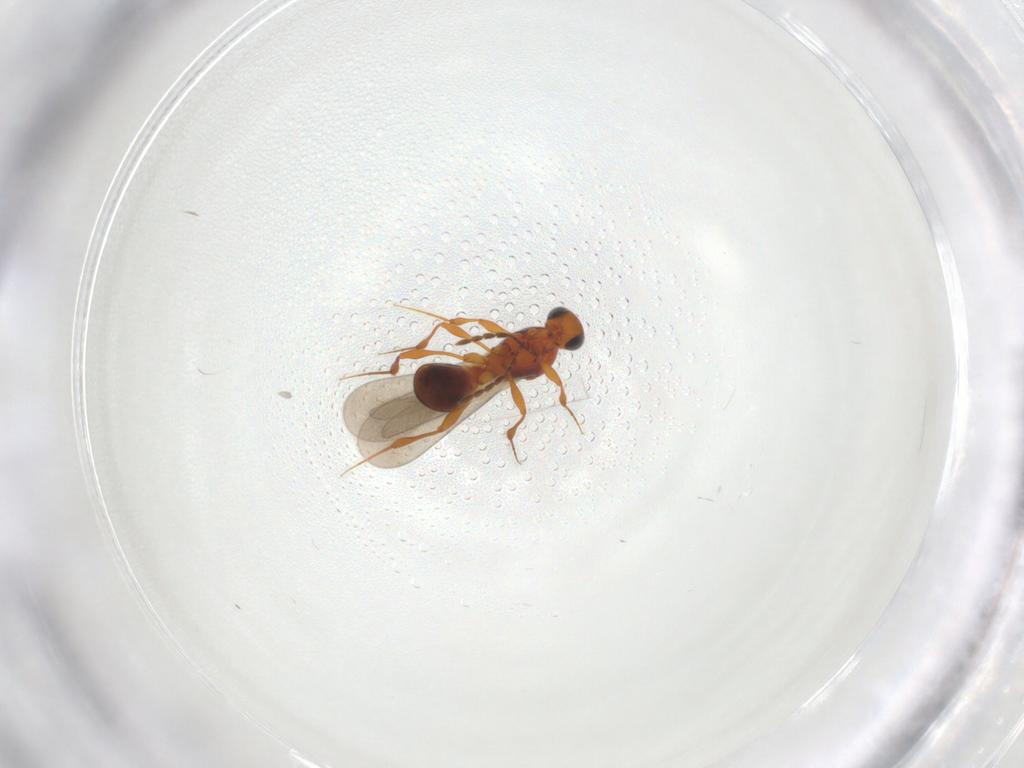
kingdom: Animalia
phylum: Arthropoda
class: Insecta
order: Hymenoptera
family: Platygastridae
